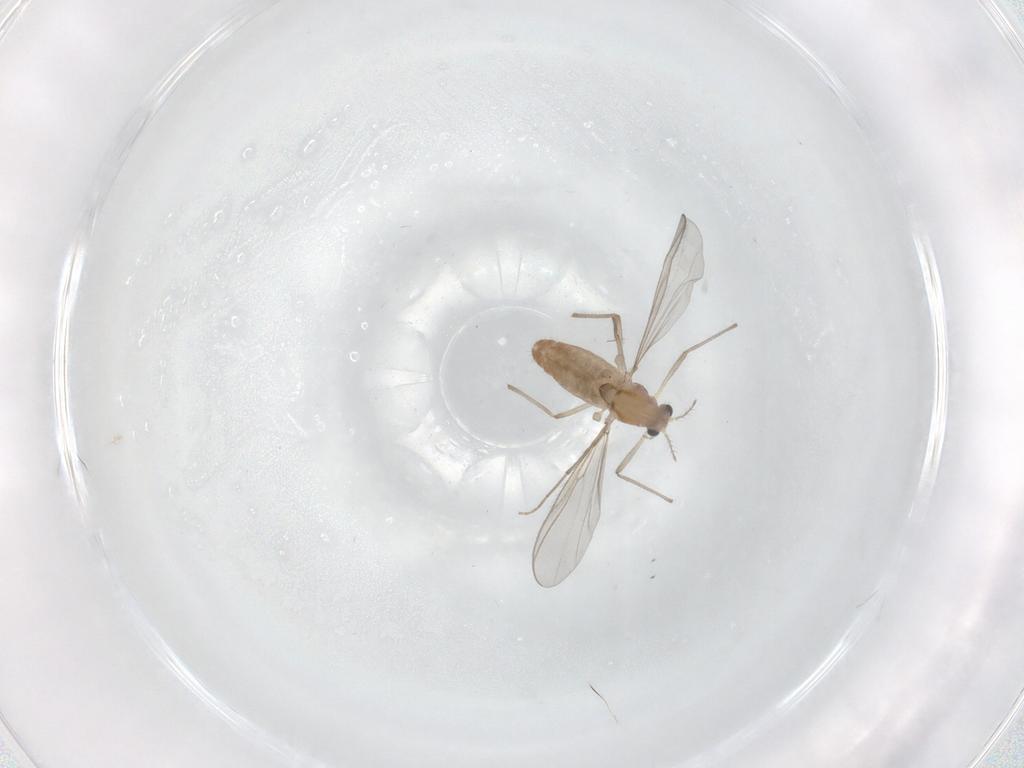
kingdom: Animalia
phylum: Arthropoda
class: Insecta
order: Diptera
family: Chironomidae
